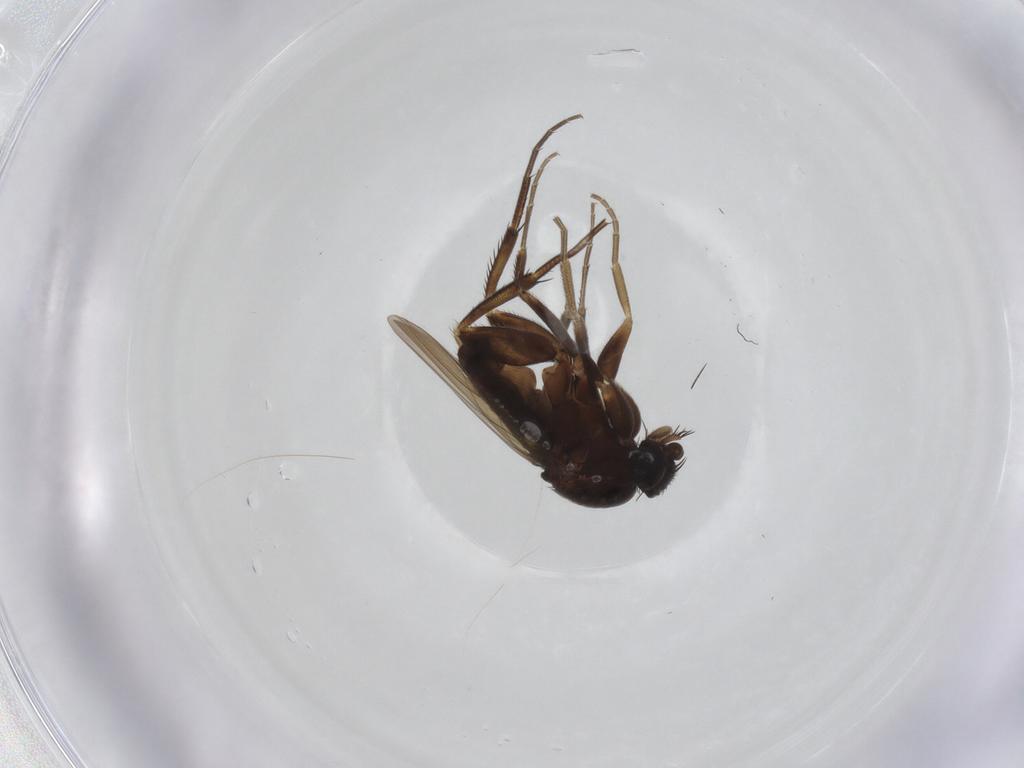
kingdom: Animalia
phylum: Arthropoda
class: Insecta
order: Diptera
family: Phoridae
